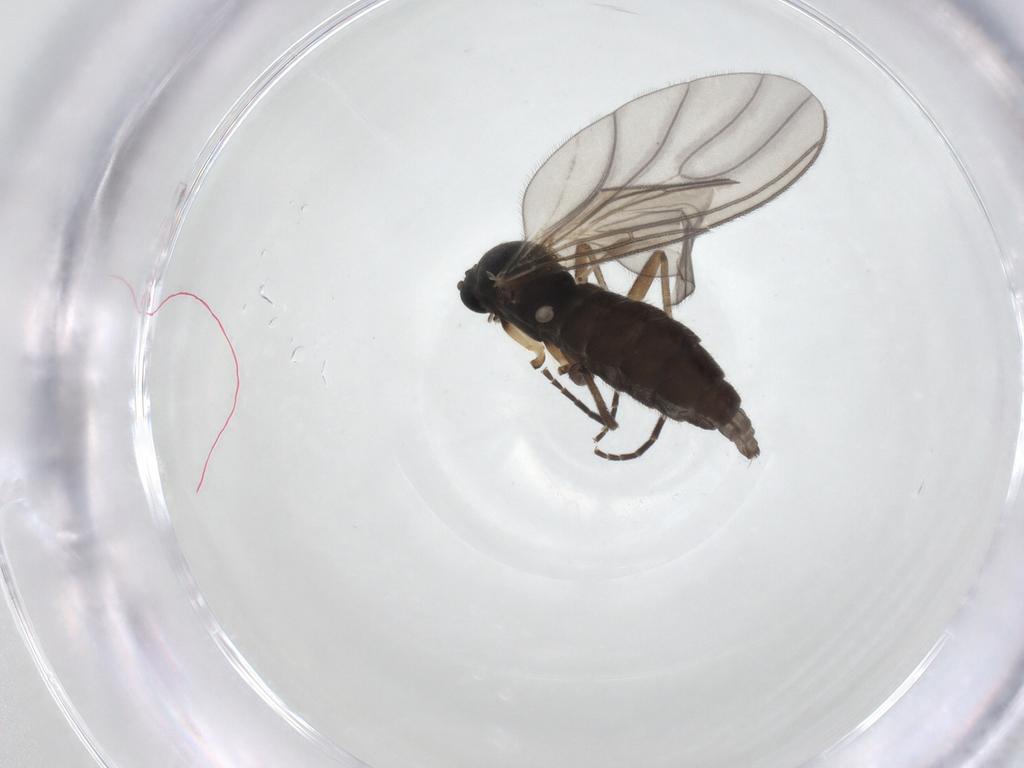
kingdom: Animalia
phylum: Arthropoda
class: Insecta
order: Diptera
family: Sciaridae
